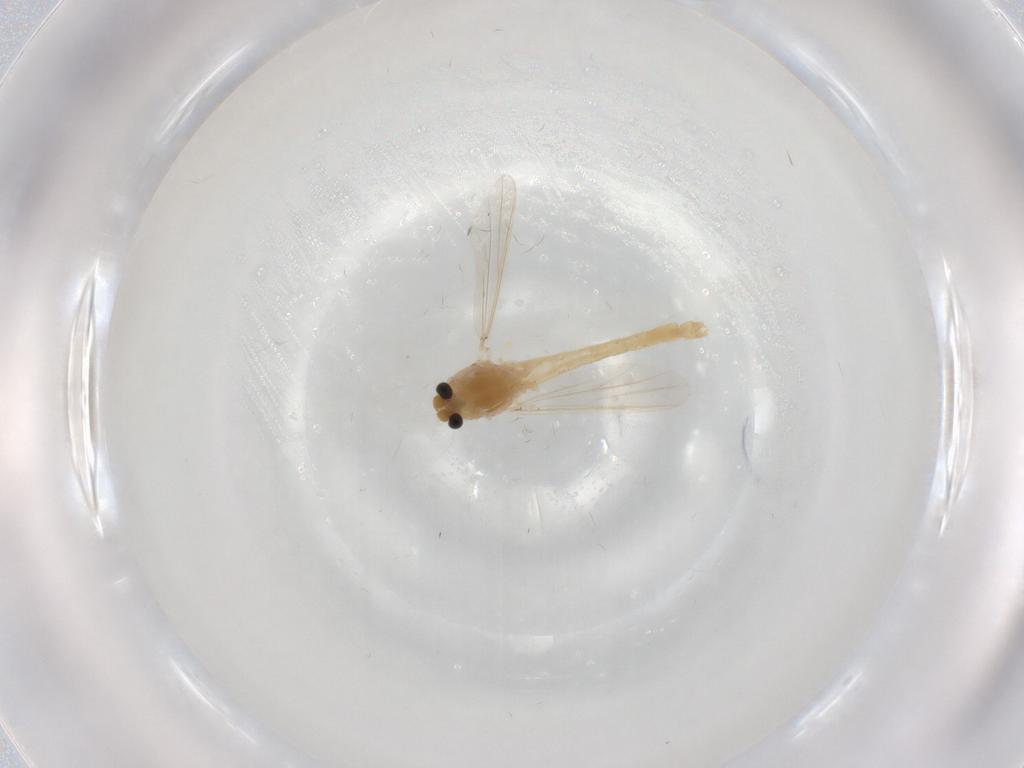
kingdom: Animalia
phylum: Arthropoda
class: Insecta
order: Diptera
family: Chironomidae
